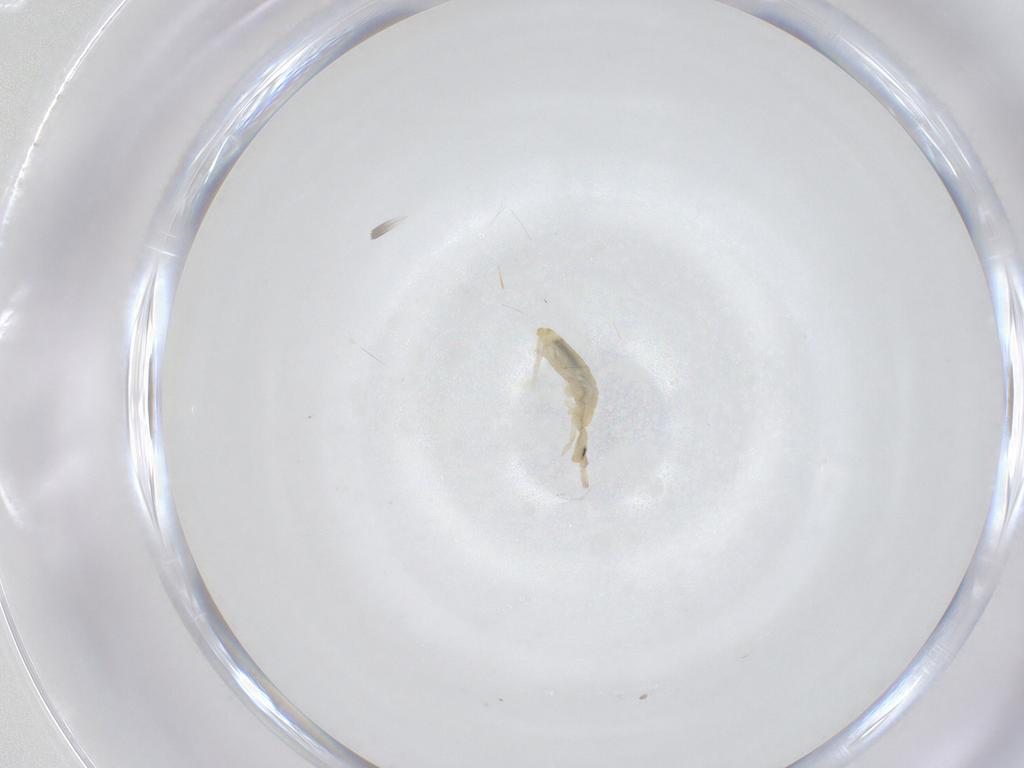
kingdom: Animalia
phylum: Arthropoda
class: Collembola
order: Entomobryomorpha
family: Entomobryidae
